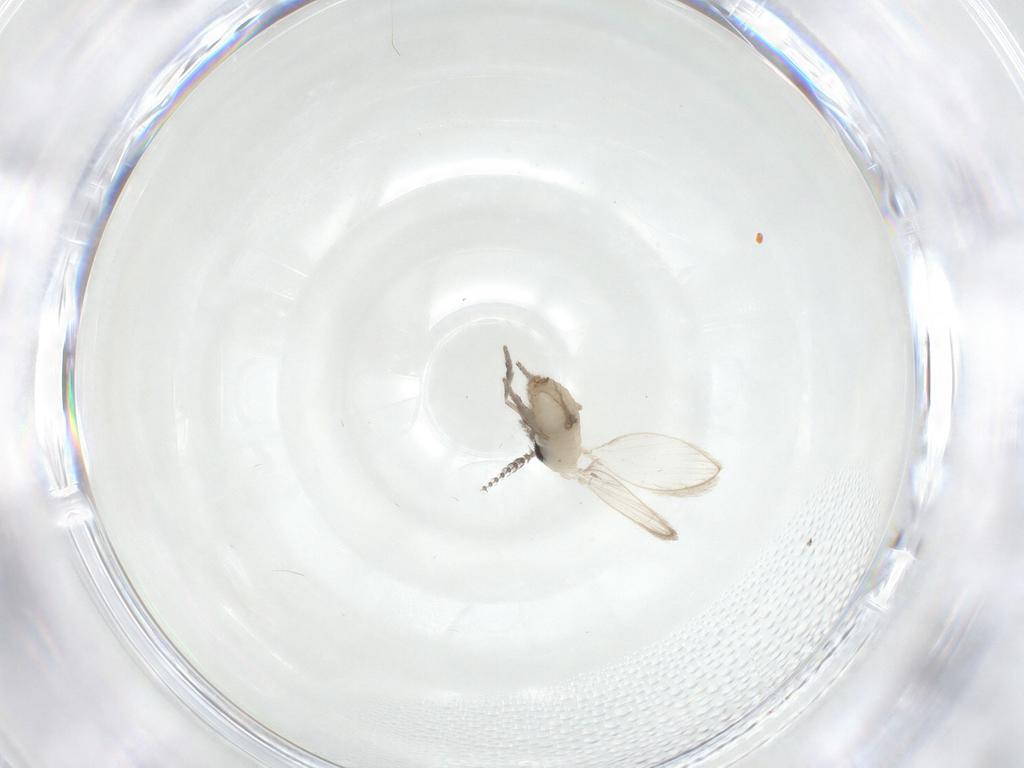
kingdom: Animalia
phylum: Arthropoda
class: Insecta
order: Diptera
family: Psychodidae
